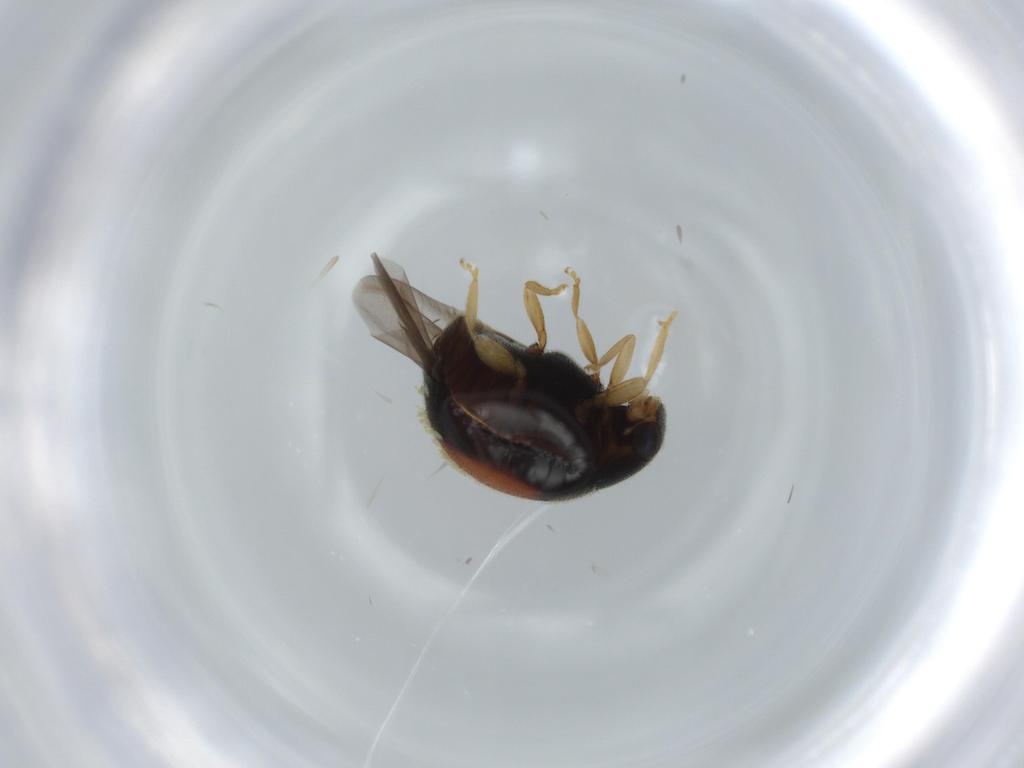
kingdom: Animalia
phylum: Arthropoda
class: Insecta
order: Coleoptera
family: Coccinellidae
